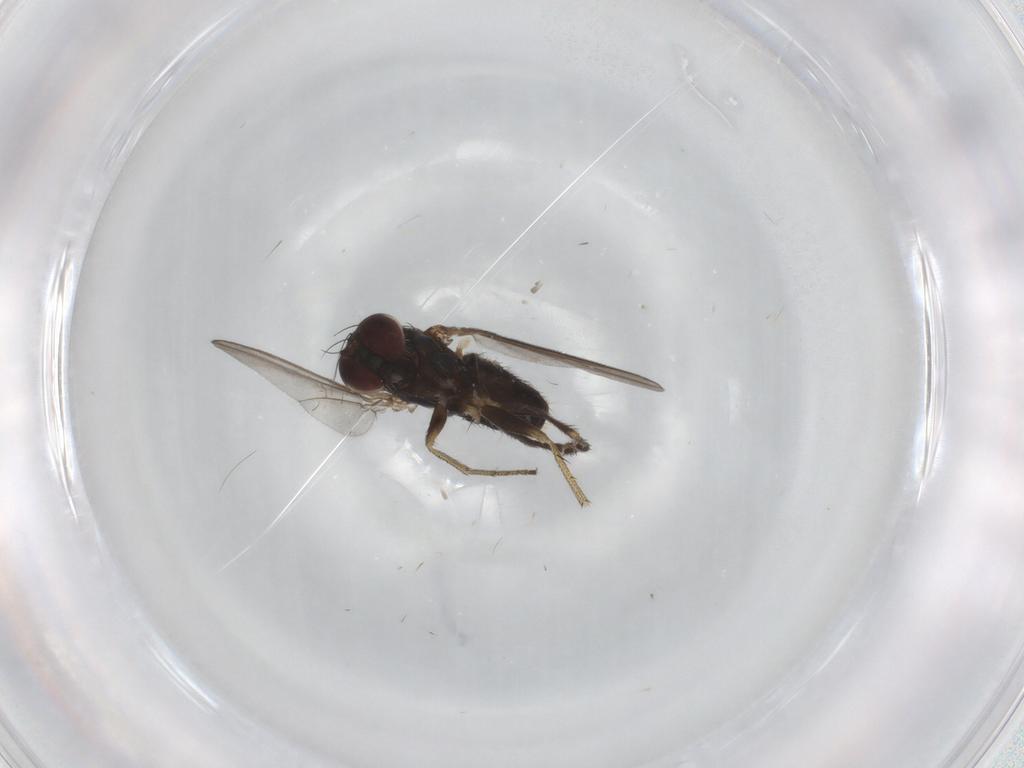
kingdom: Animalia
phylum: Arthropoda
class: Insecta
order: Diptera
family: Dolichopodidae
